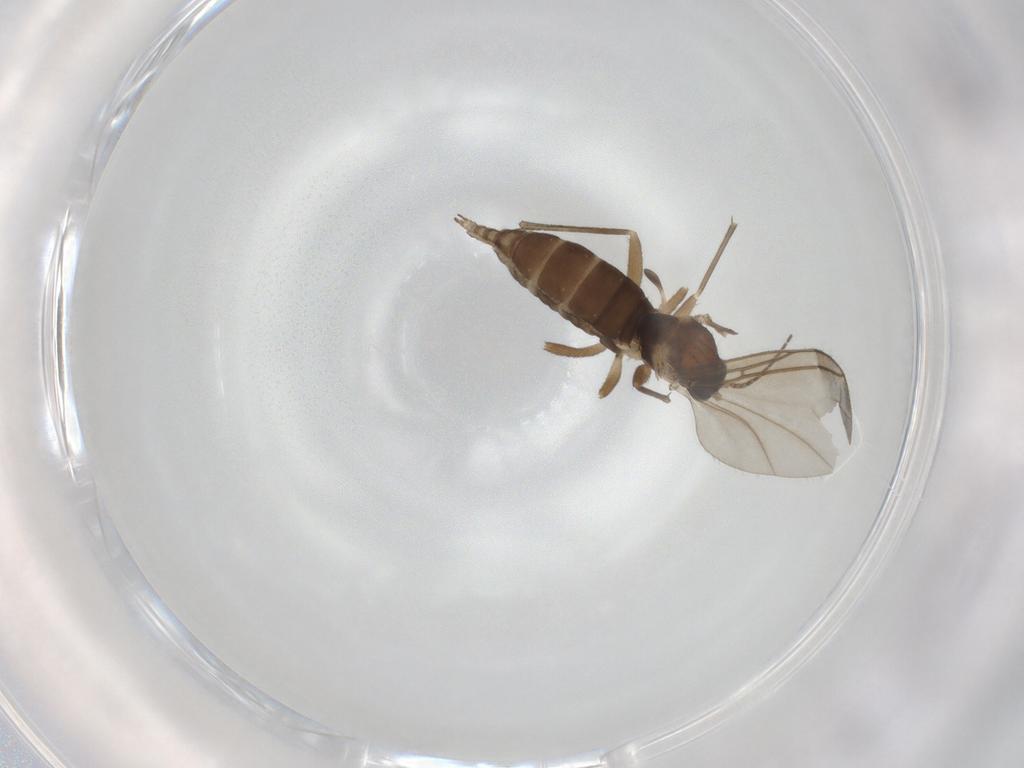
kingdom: Animalia
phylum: Arthropoda
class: Insecta
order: Diptera
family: Sciaridae
